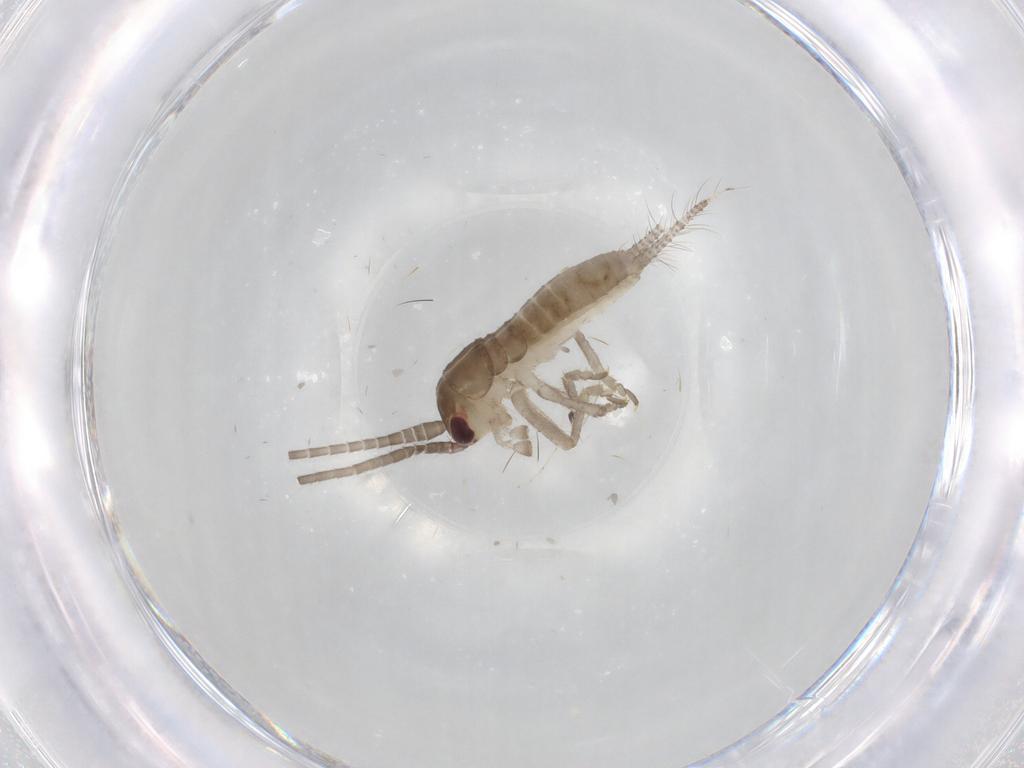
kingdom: Animalia
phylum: Arthropoda
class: Insecta
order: Orthoptera
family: Gryllidae
